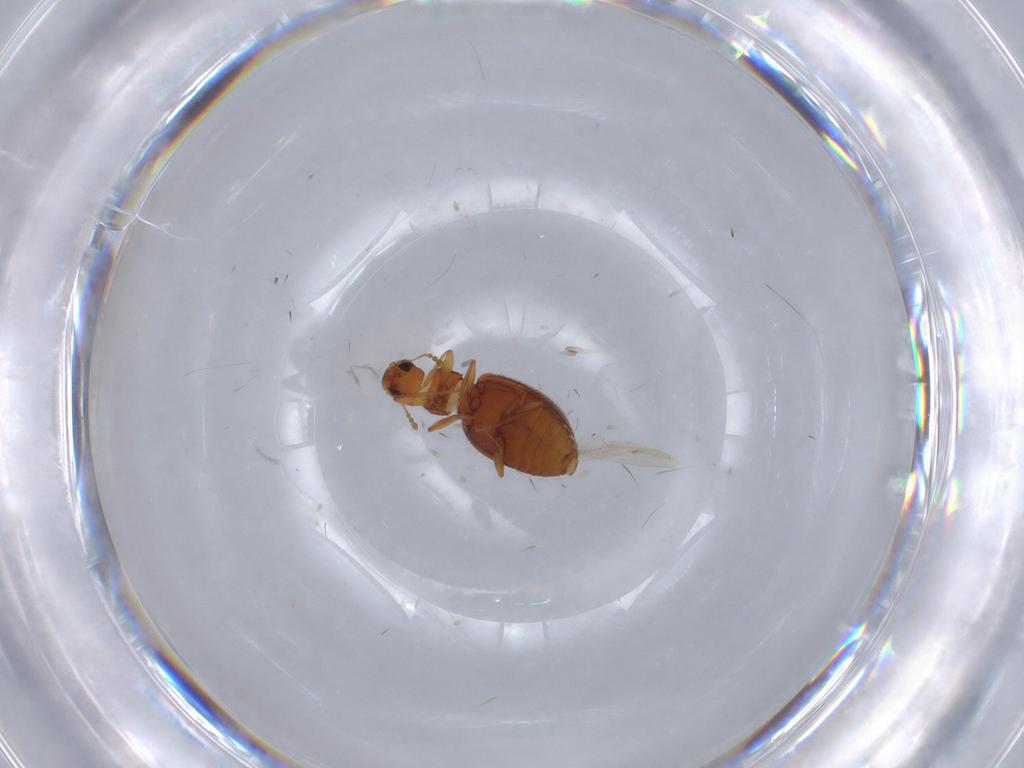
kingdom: Animalia
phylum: Arthropoda
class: Insecta
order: Coleoptera
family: Latridiidae
